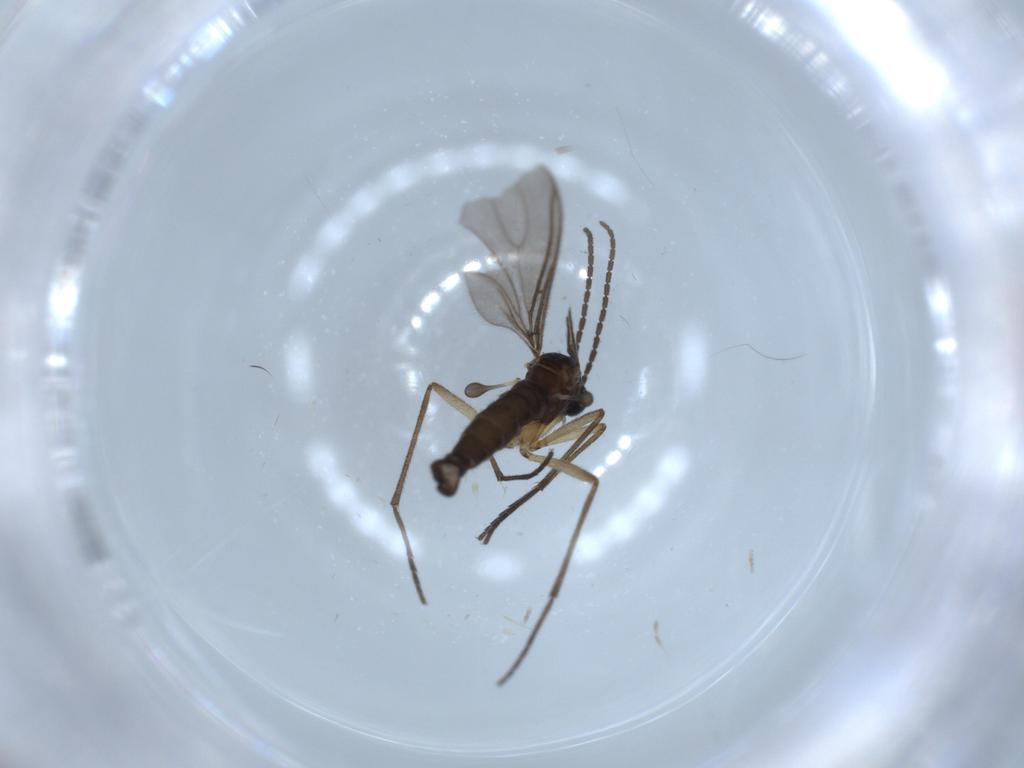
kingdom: Animalia
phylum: Arthropoda
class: Insecta
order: Diptera
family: Sciaridae
